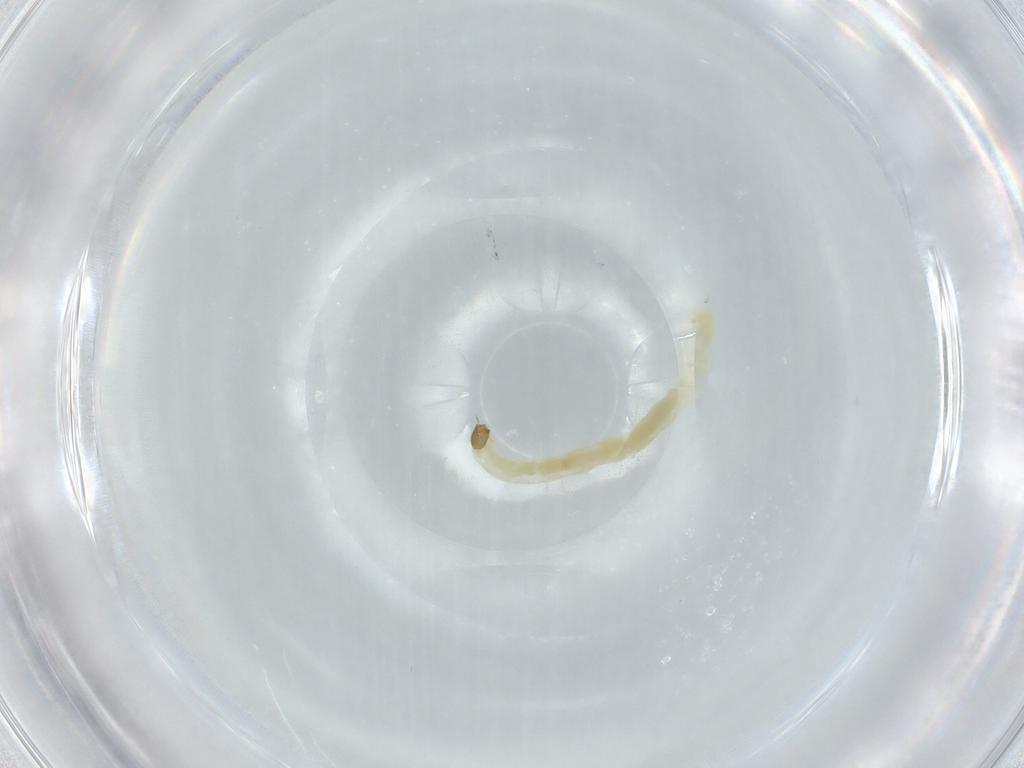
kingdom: Animalia
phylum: Arthropoda
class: Insecta
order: Diptera
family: Chironomidae
